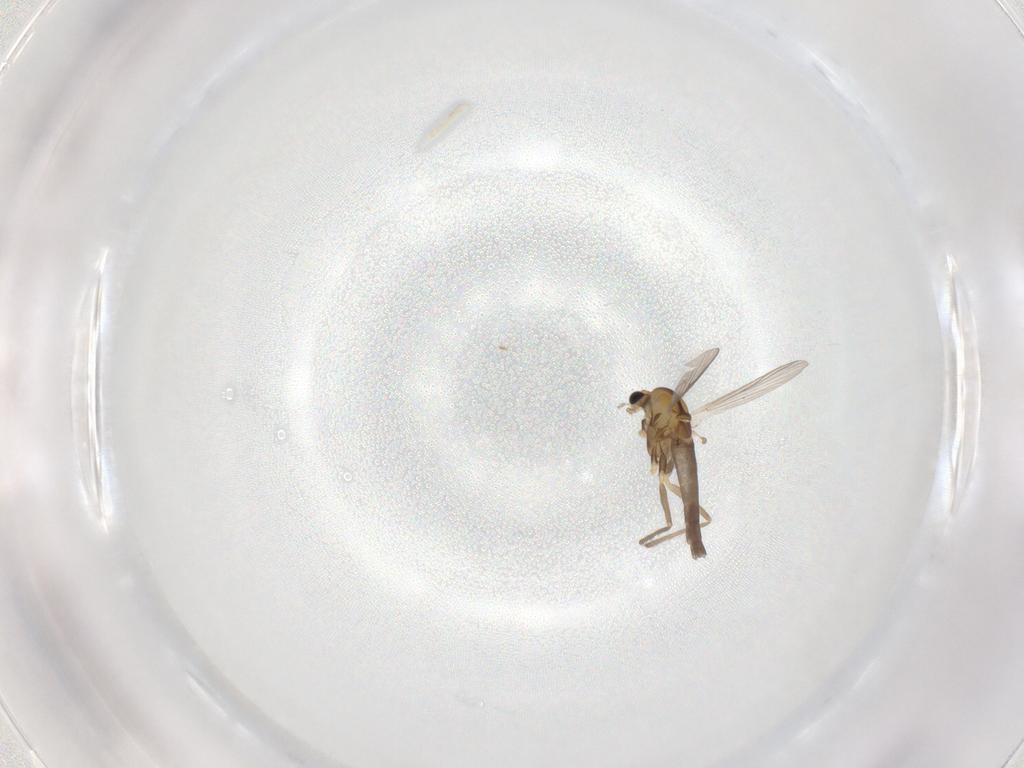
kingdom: Animalia
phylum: Arthropoda
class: Insecta
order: Diptera
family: Chironomidae
